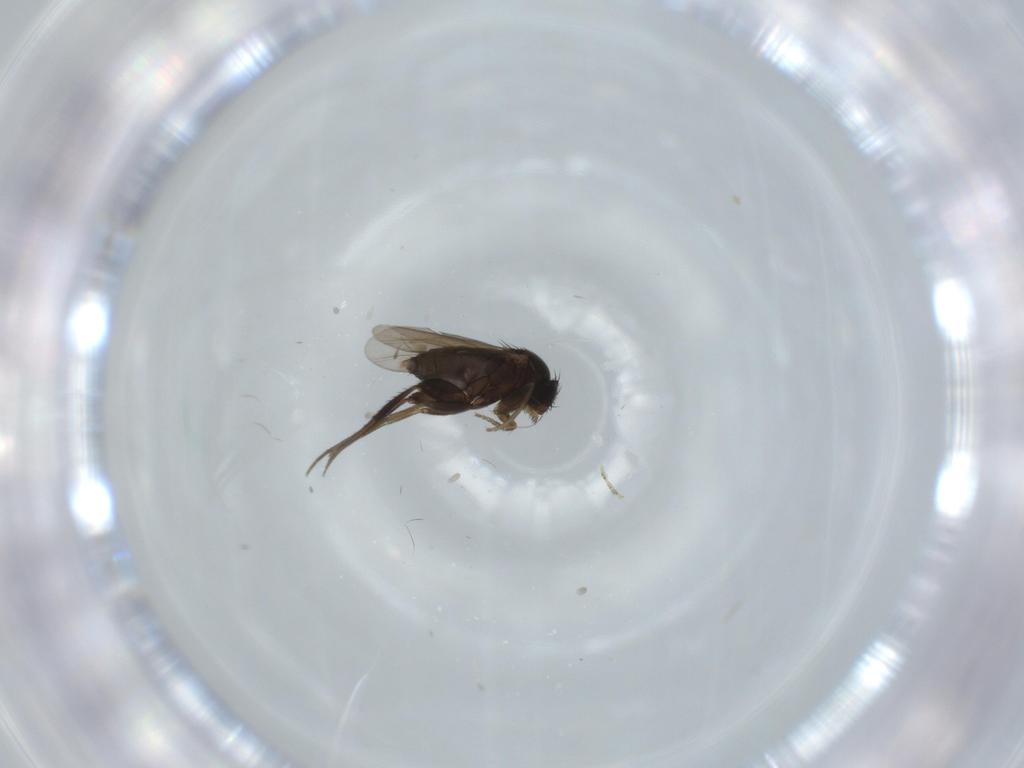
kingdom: Animalia
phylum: Arthropoda
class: Insecta
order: Diptera
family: Phoridae
